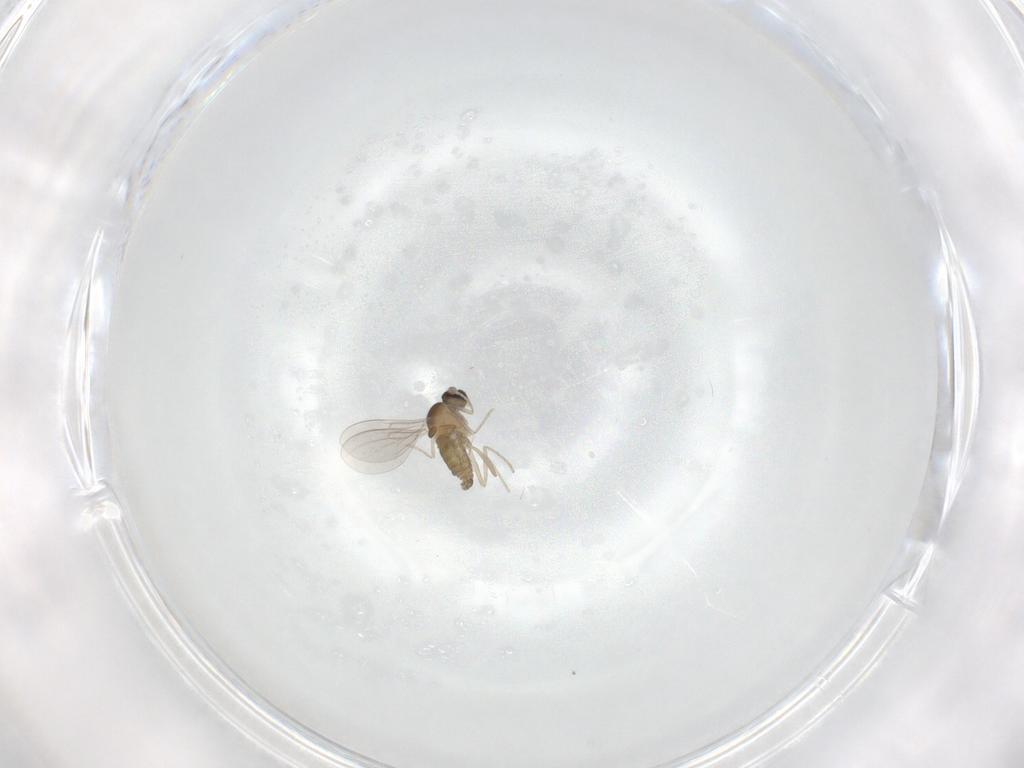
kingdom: Animalia
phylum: Arthropoda
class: Insecta
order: Diptera
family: Cecidomyiidae
